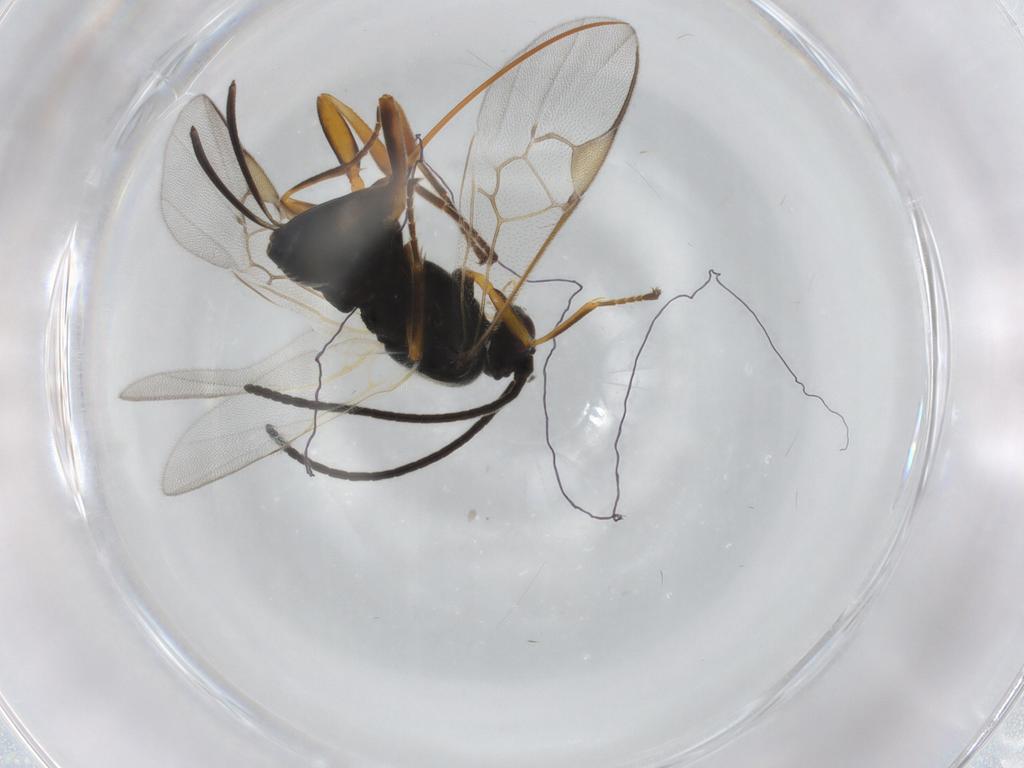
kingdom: Animalia
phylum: Arthropoda
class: Insecta
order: Hymenoptera
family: Braconidae
